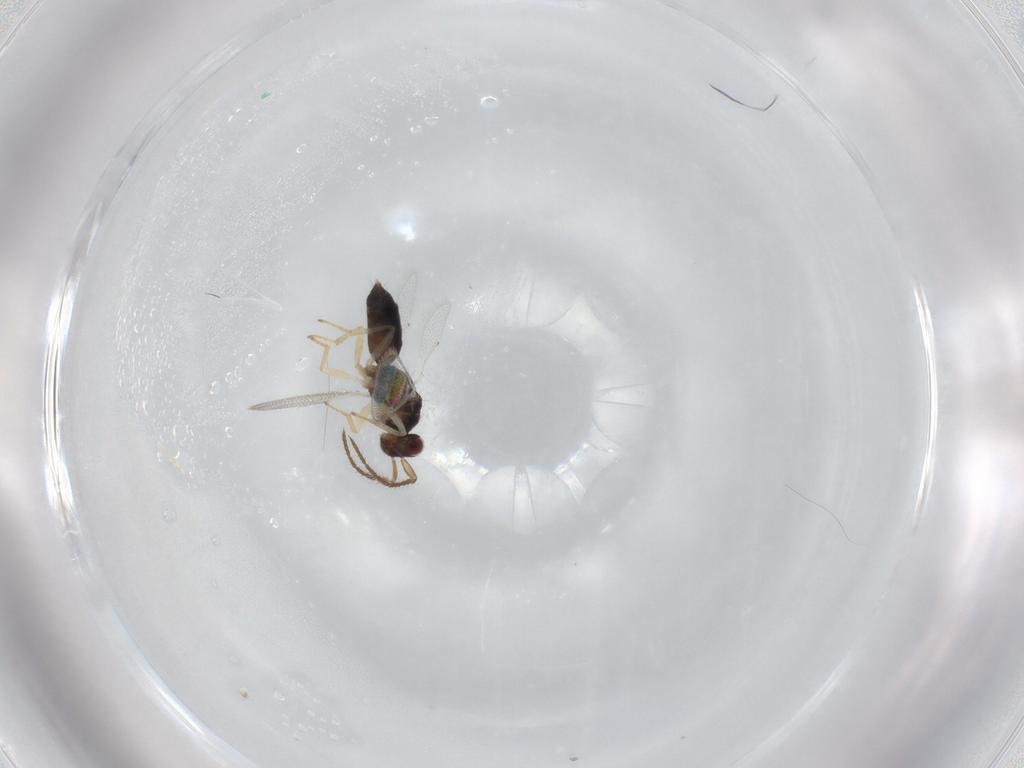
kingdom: Animalia
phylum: Arthropoda
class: Insecta
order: Hymenoptera
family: Eulophidae
